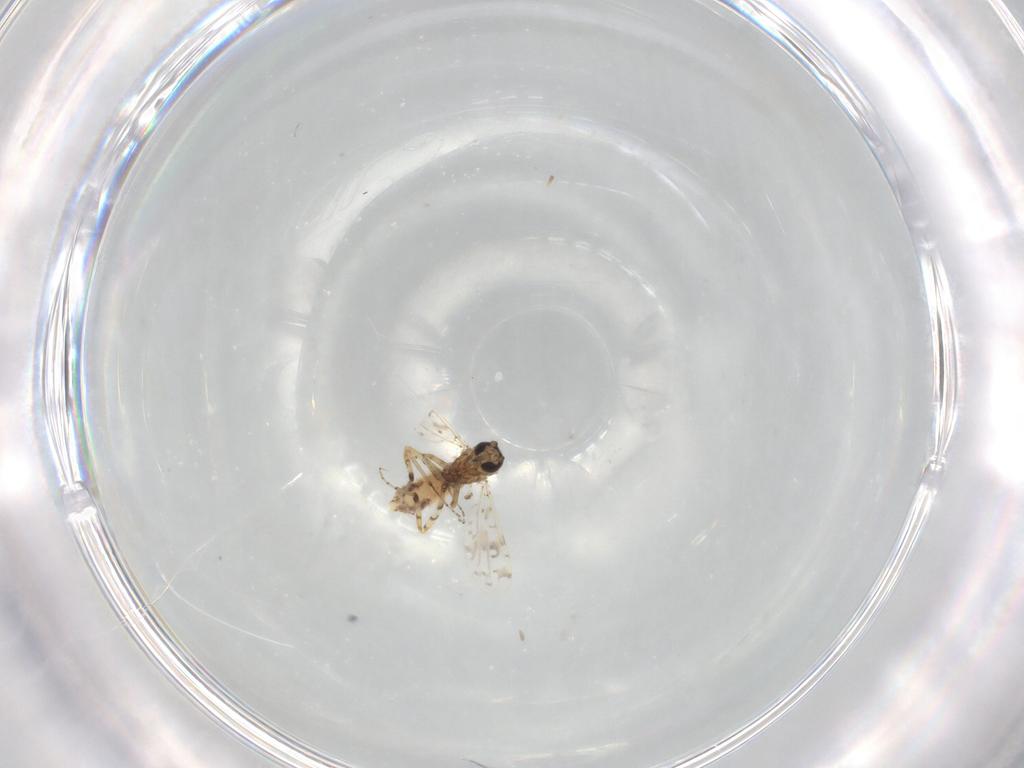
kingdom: Animalia
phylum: Arthropoda
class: Insecta
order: Diptera
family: Ceratopogonidae
